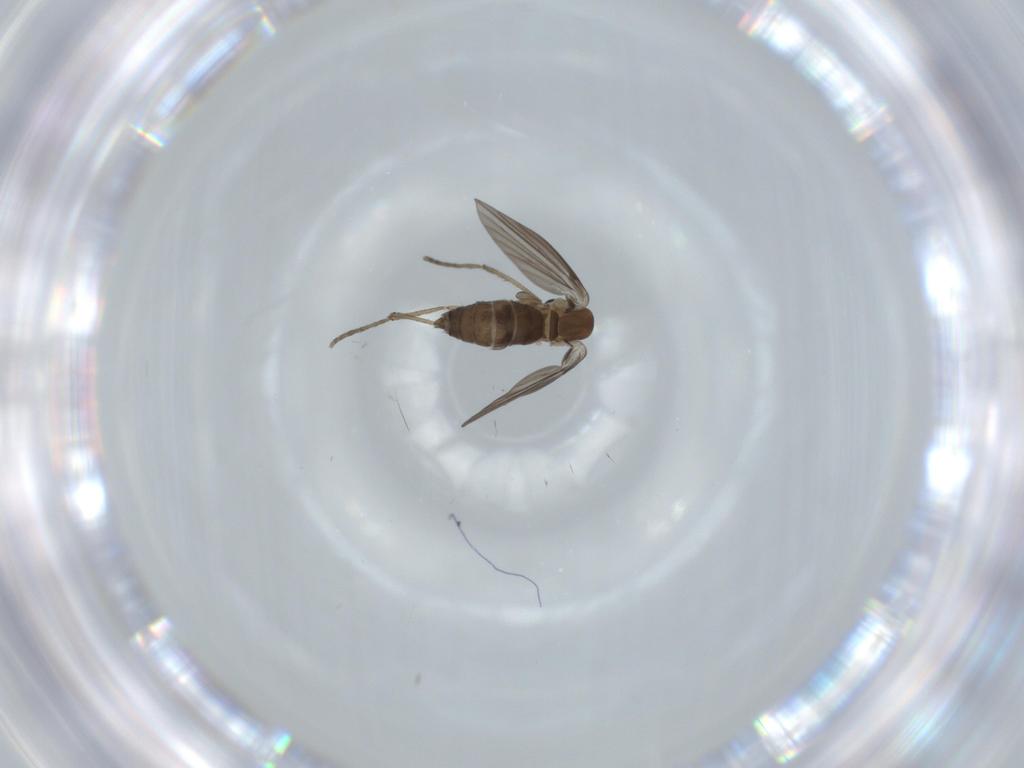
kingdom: Animalia
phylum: Arthropoda
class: Insecta
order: Diptera
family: Psychodidae
